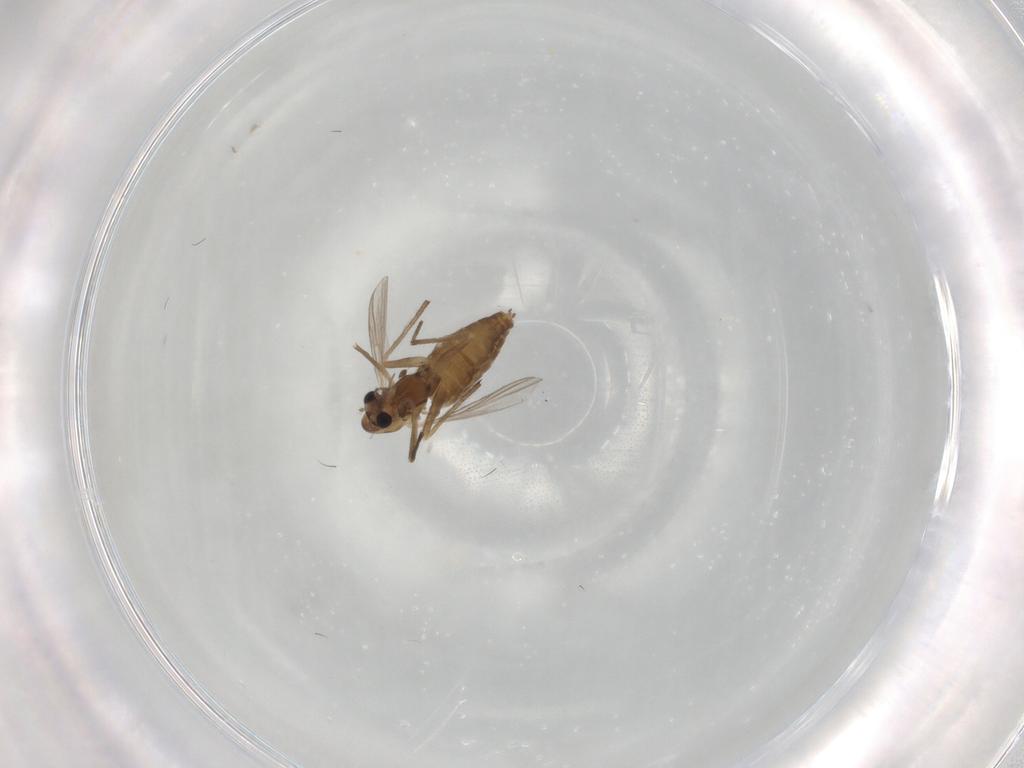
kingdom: Animalia
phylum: Arthropoda
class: Insecta
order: Diptera
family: Chironomidae
